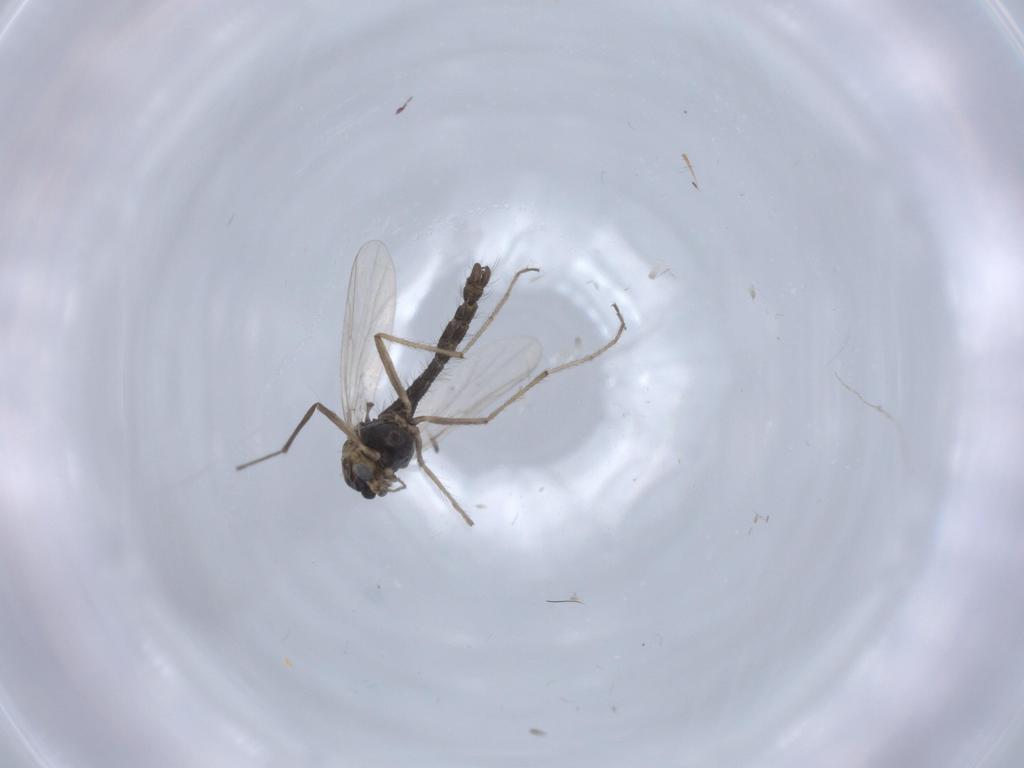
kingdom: Animalia
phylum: Arthropoda
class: Insecta
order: Diptera
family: Chironomidae
